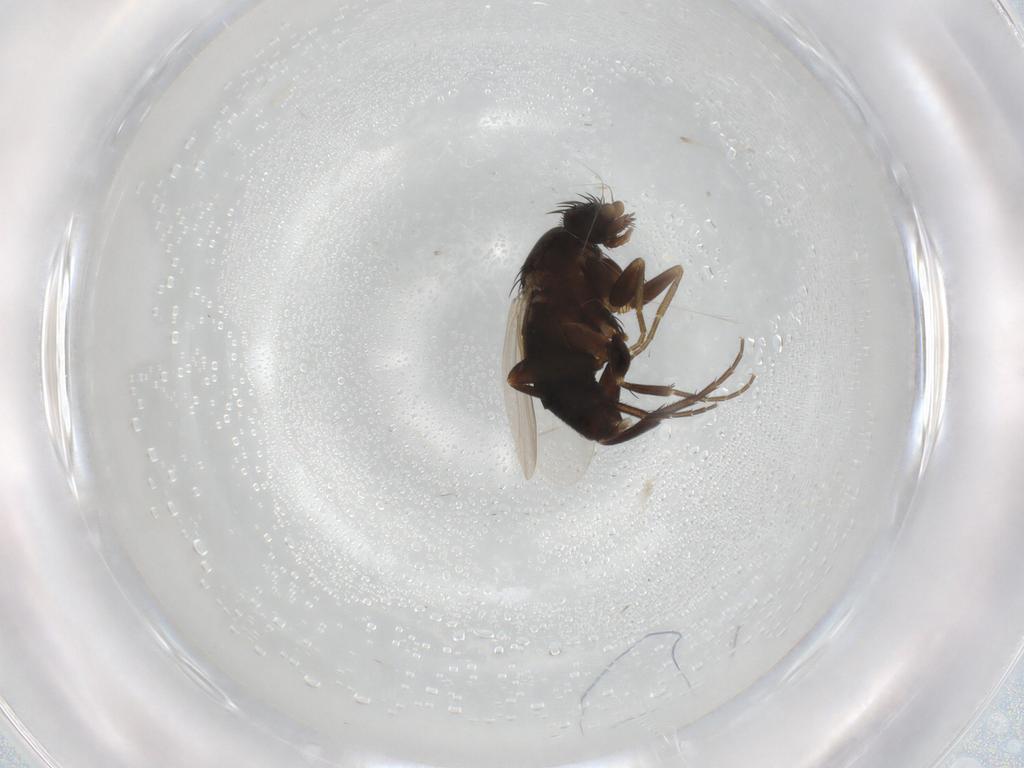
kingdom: Animalia
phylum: Arthropoda
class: Insecta
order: Diptera
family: Phoridae
